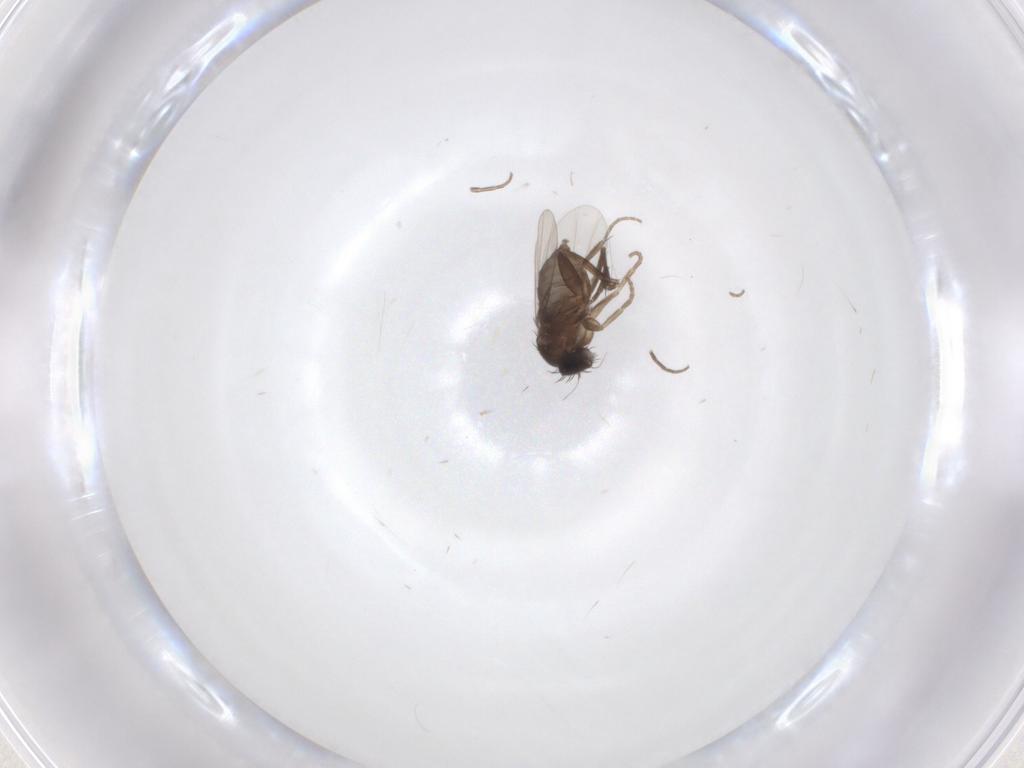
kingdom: Animalia
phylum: Arthropoda
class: Insecta
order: Diptera
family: Phoridae
